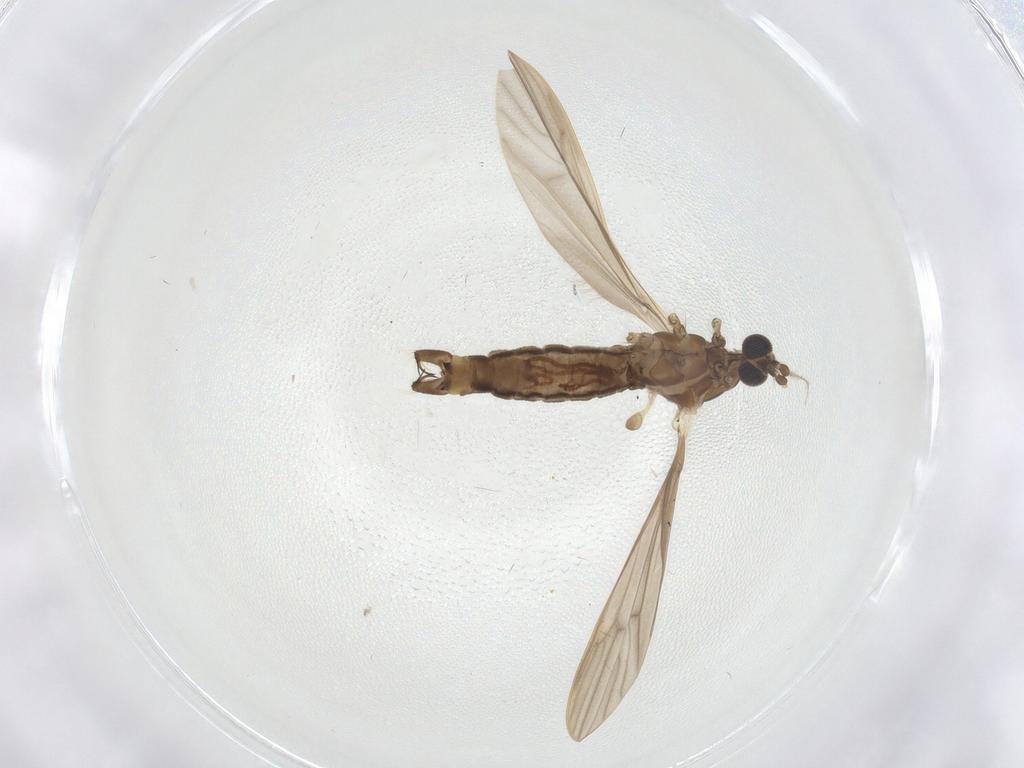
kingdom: Animalia
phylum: Arthropoda
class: Insecta
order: Diptera
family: Limoniidae
